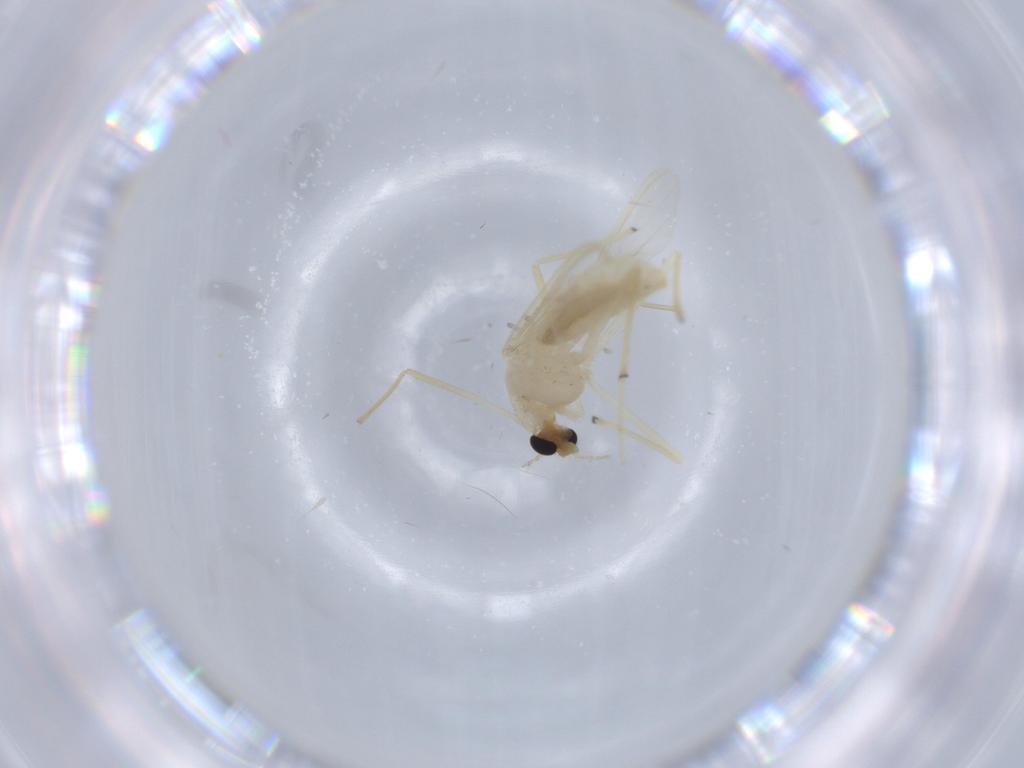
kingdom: Animalia
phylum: Arthropoda
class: Insecta
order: Diptera
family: Chironomidae
